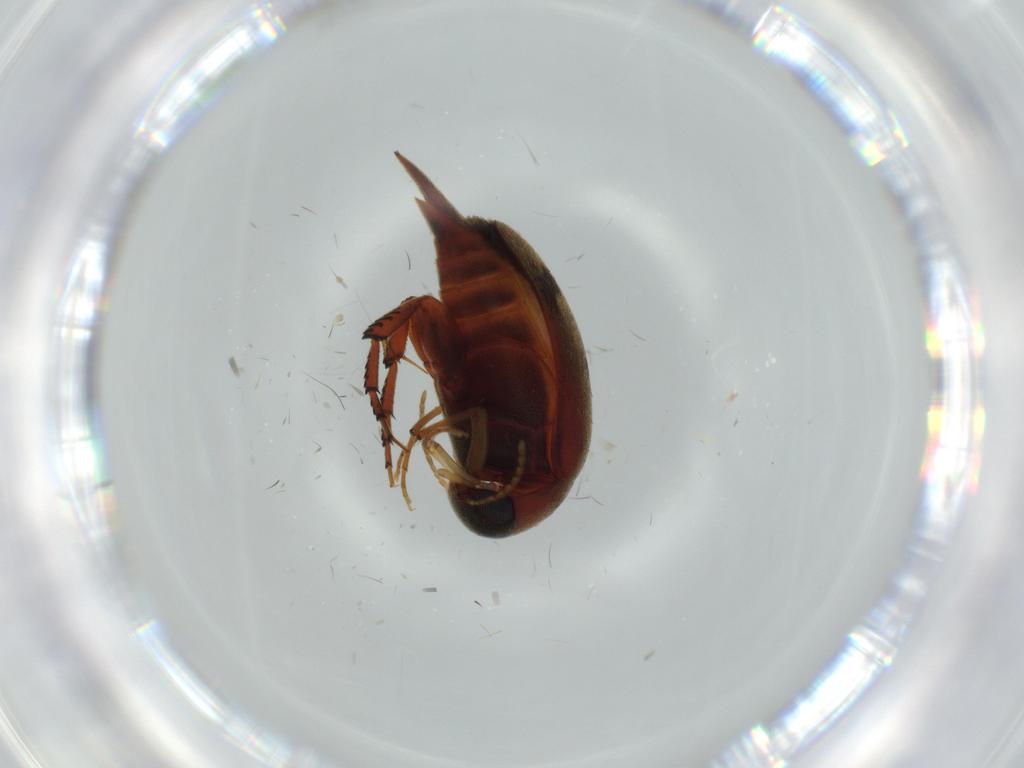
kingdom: Animalia
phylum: Arthropoda
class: Insecta
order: Coleoptera
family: Mordellidae
